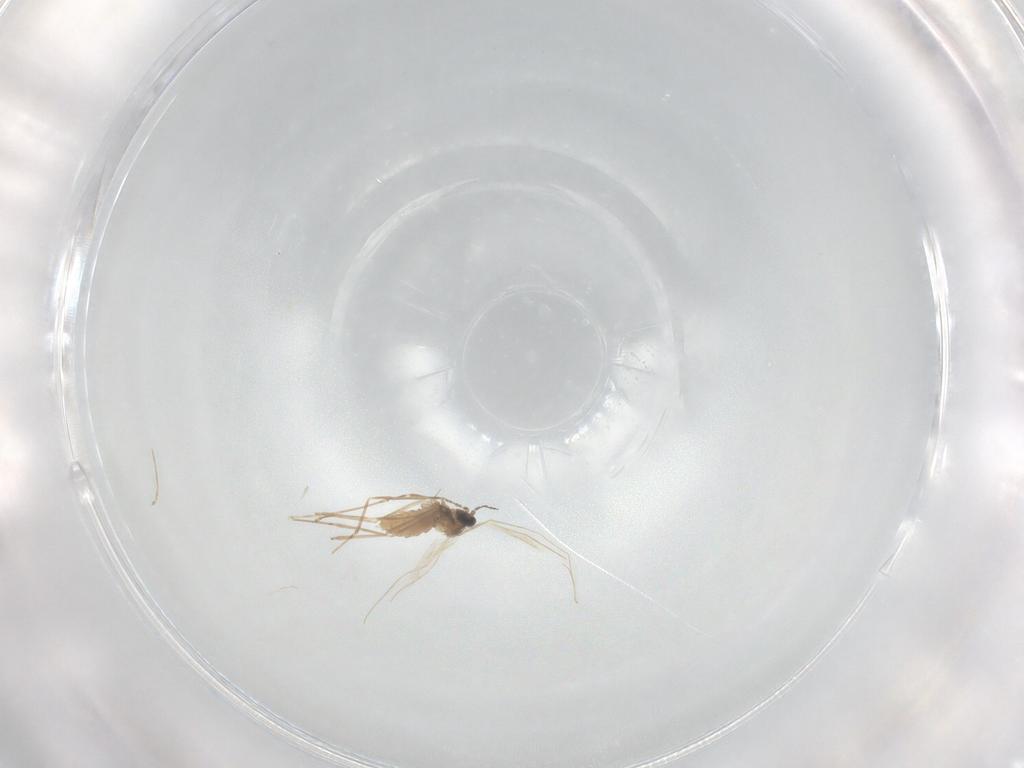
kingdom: Animalia
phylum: Arthropoda
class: Insecta
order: Diptera
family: Cecidomyiidae
